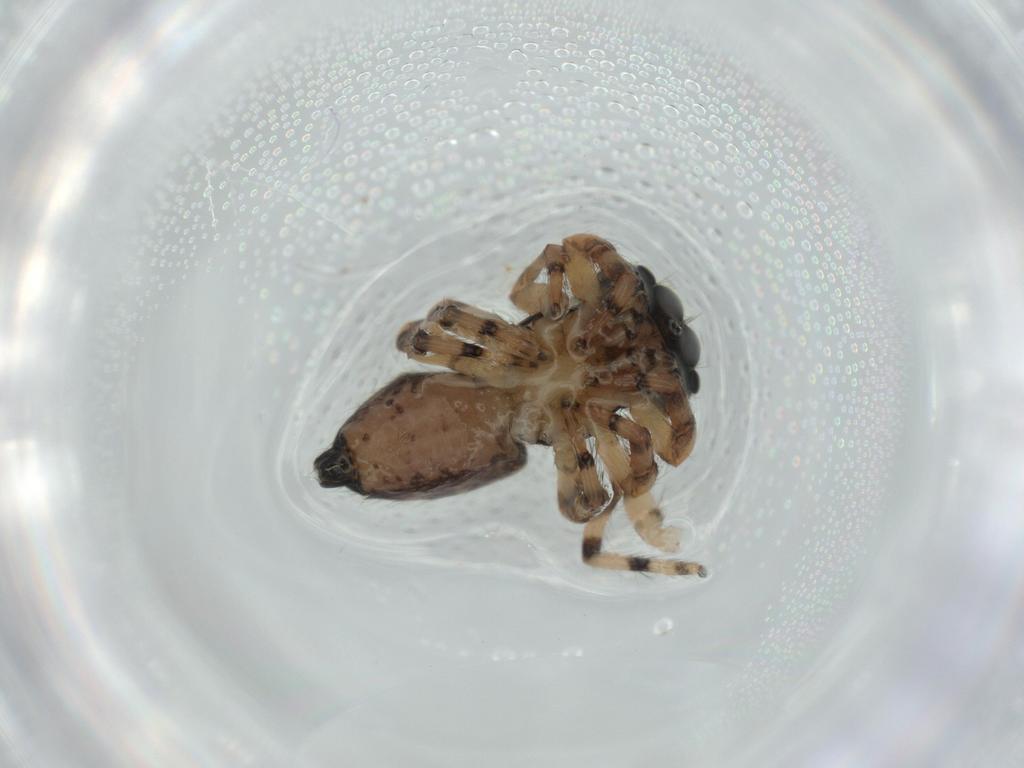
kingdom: Animalia
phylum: Arthropoda
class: Arachnida
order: Araneae
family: Salticidae
